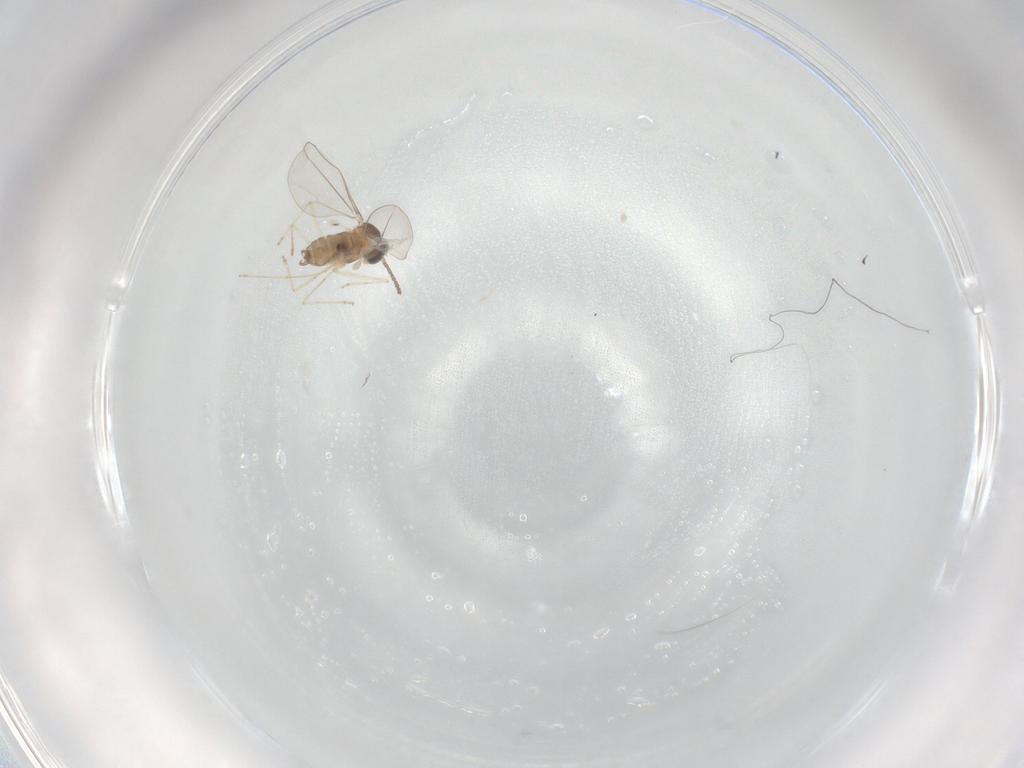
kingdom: Animalia
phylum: Arthropoda
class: Insecta
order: Diptera
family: Cecidomyiidae
